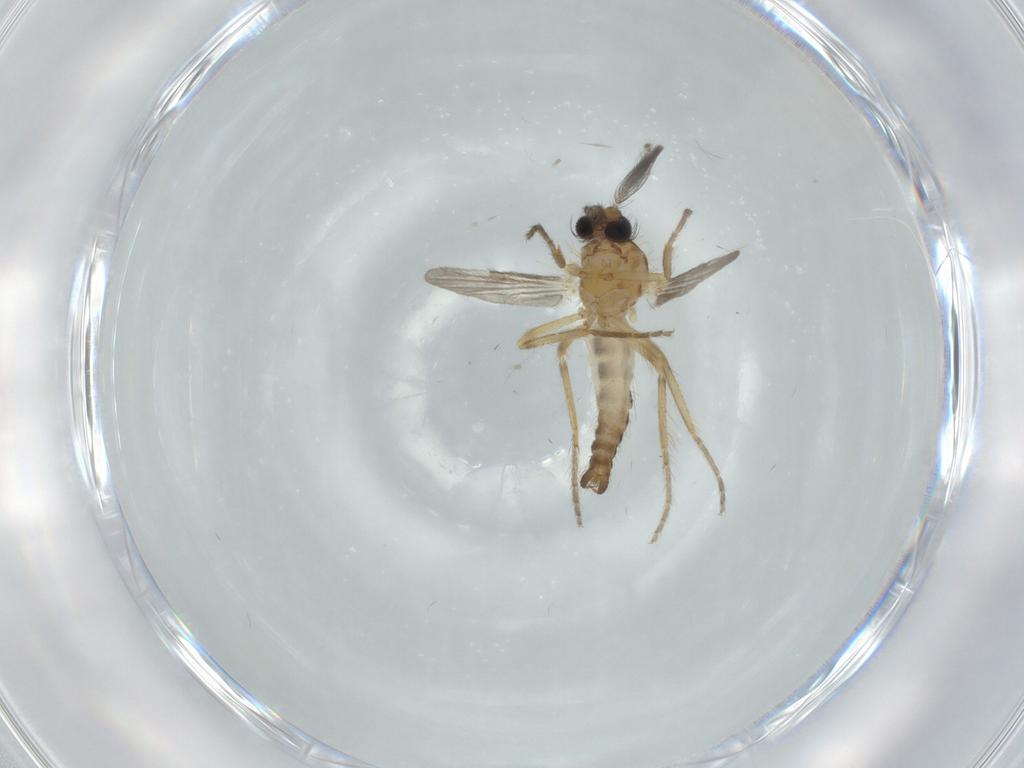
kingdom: Animalia
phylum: Arthropoda
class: Insecta
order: Diptera
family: Chironomidae
